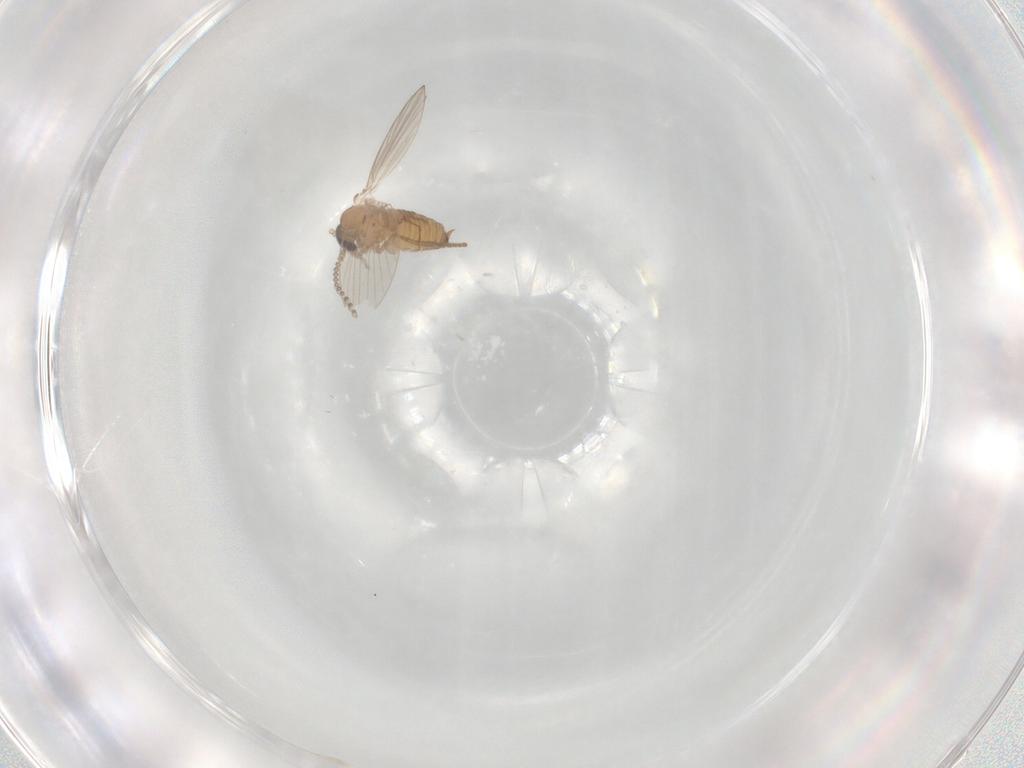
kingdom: Animalia
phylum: Arthropoda
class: Insecta
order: Diptera
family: Psychodidae
